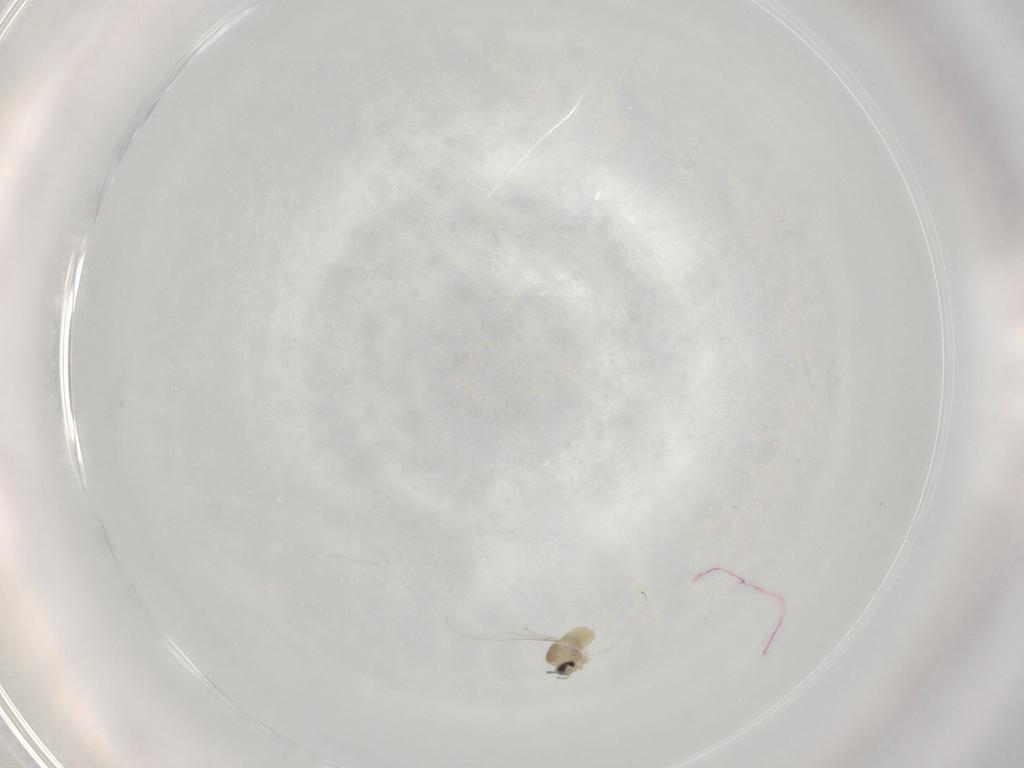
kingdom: Animalia
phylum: Arthropoda
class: Insecta
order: Diptera
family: Cecidomyiidae
